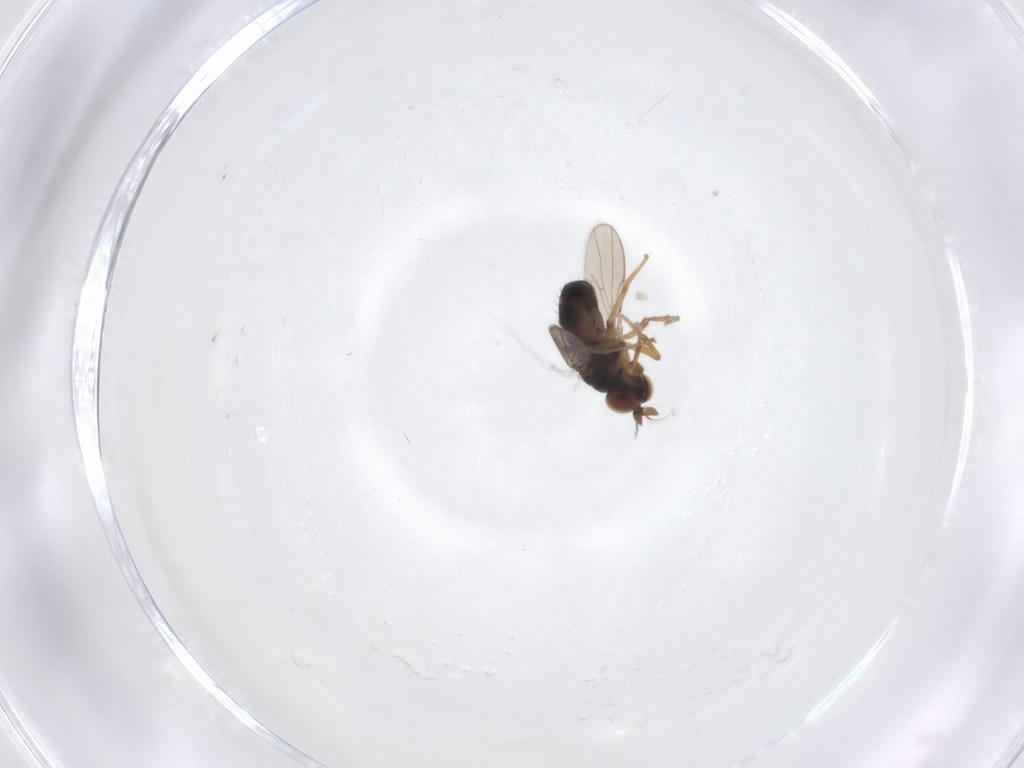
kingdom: Animalia
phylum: Arthropoda
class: Insecta
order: Diptera
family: Ephydridae
